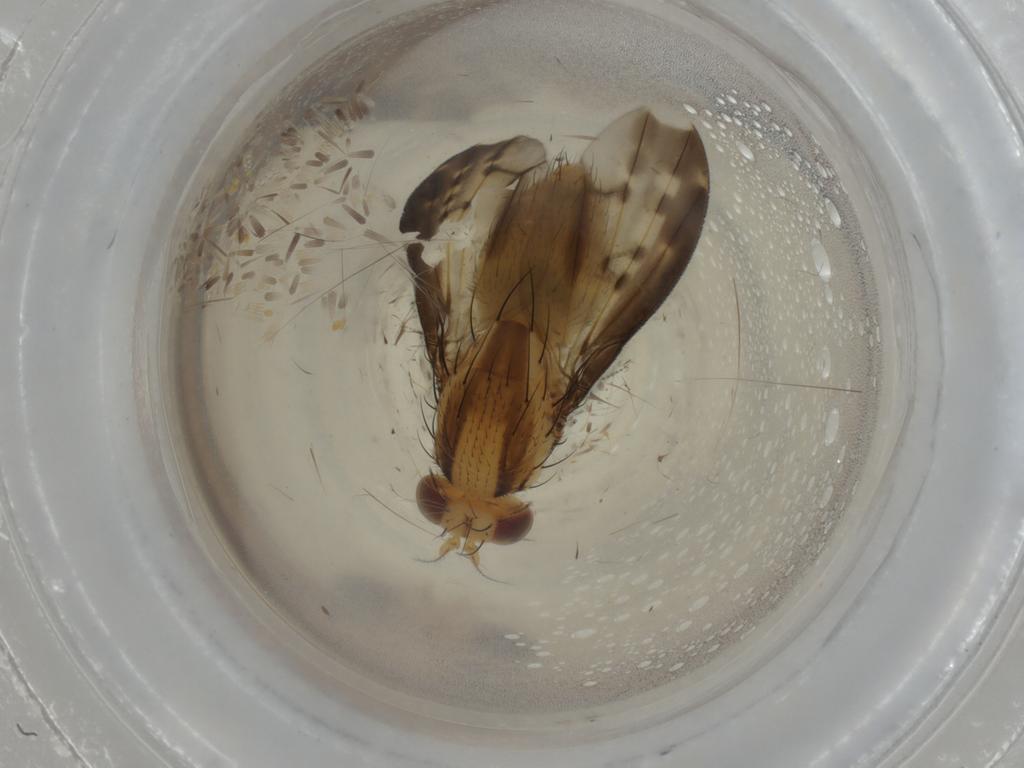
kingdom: Animalia
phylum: Arthropoda
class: Insecta
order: Diptera
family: Cecidomyiidae
